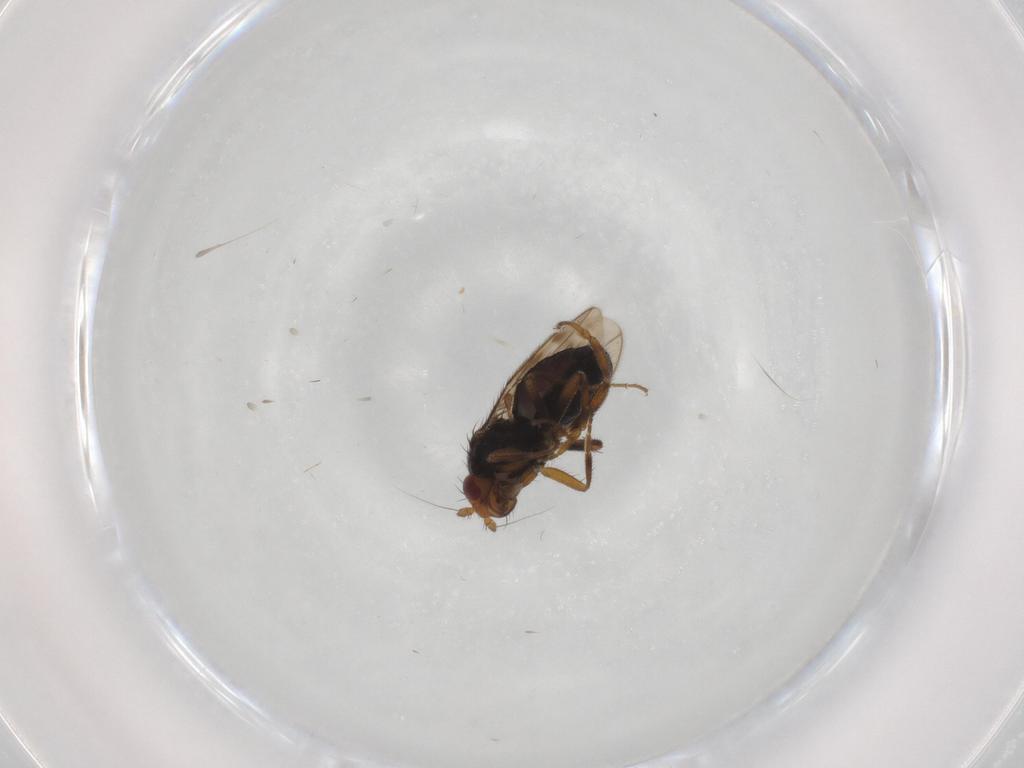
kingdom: Animalia
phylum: Arthropoda
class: Insecta
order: Diptera
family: Sphaeroceridae
